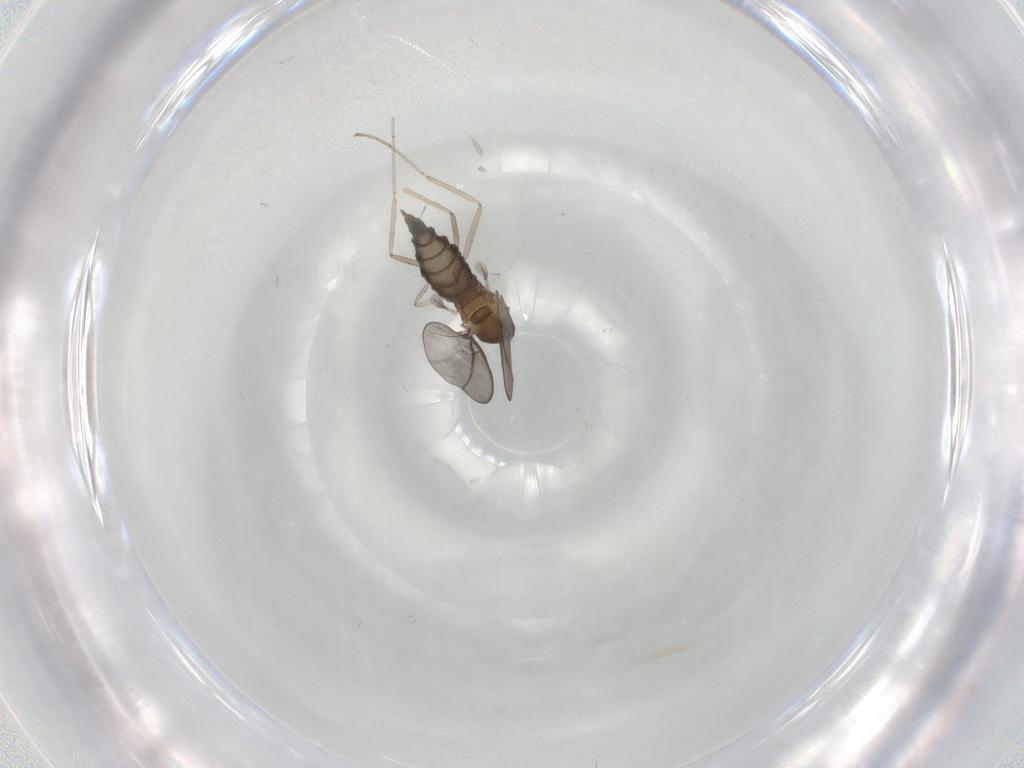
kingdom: Animalia
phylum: Arthropoda
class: Insecta
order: Diptera
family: Cecidomyiidae
